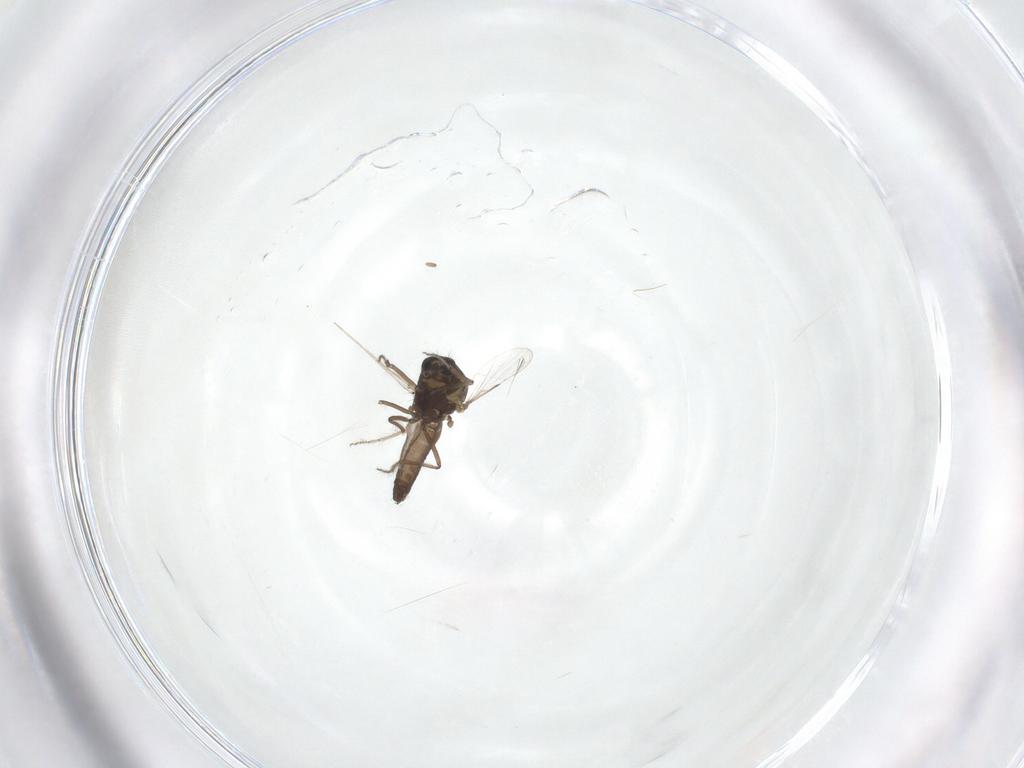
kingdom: Animalia
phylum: Arthropoda
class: Insecta
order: Diptera
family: Ceratopogonidae
